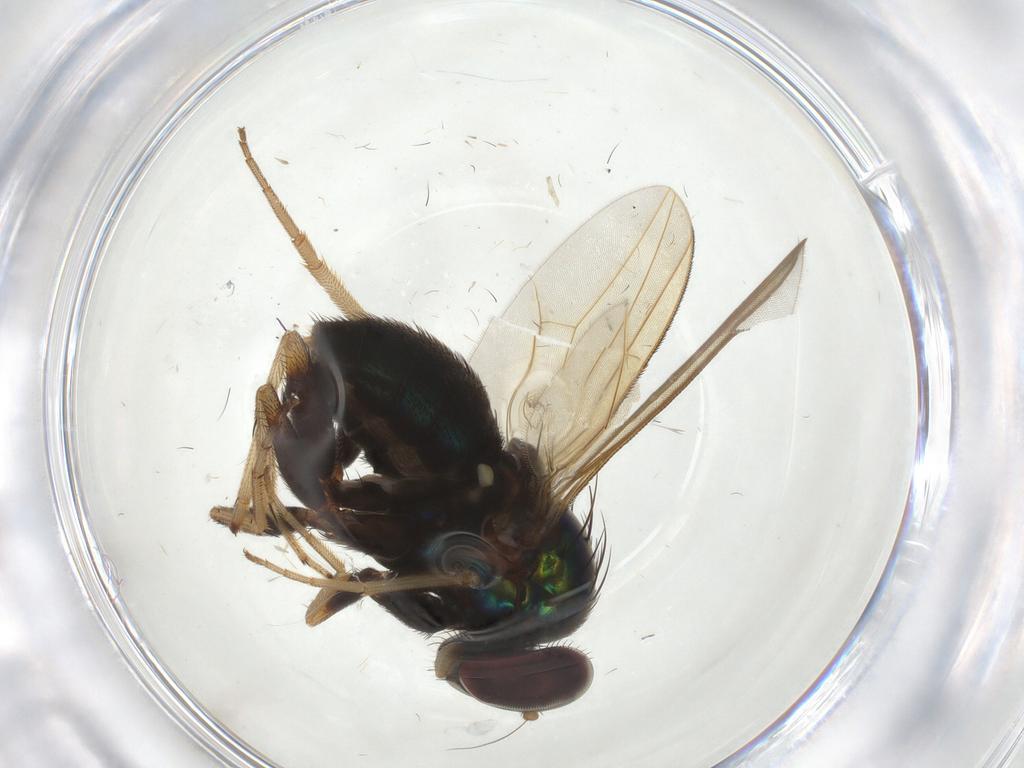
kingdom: Animalia
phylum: Arthropoda
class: Insecta
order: Diptera
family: Dolichopodidae
